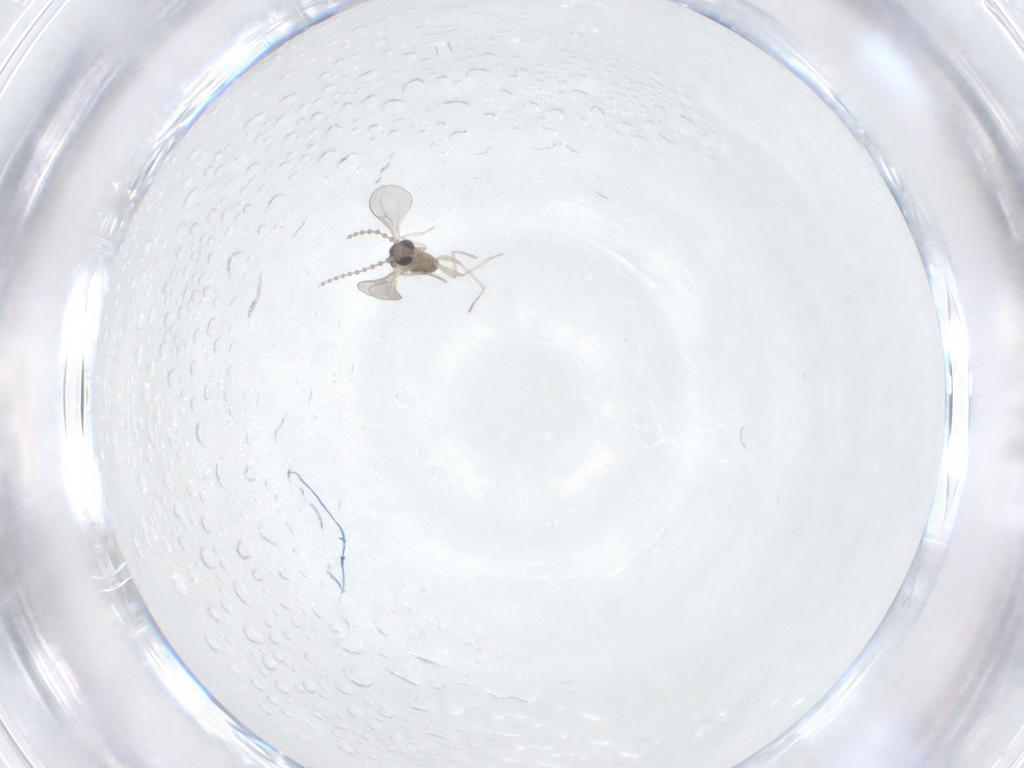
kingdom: Animalia
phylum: Arthropoda
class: Insecta
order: Diptera
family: Cecidomyiidae
